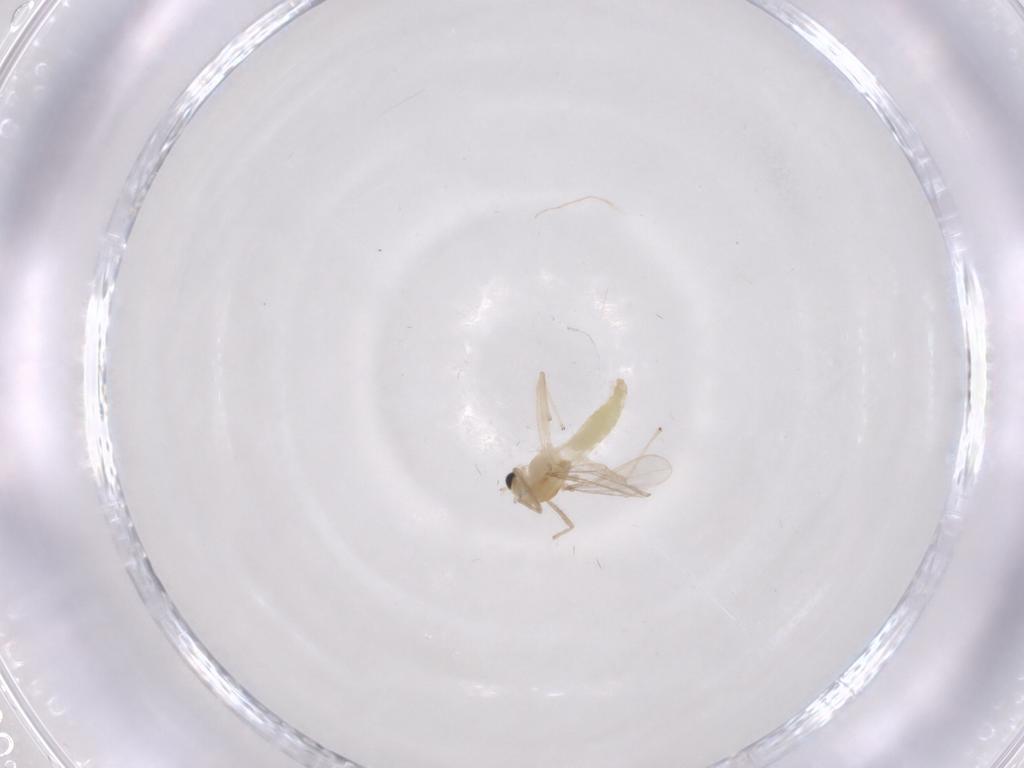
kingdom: Animalia
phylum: Arthropoda
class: Insecta
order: Diptera
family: Chironomidae
